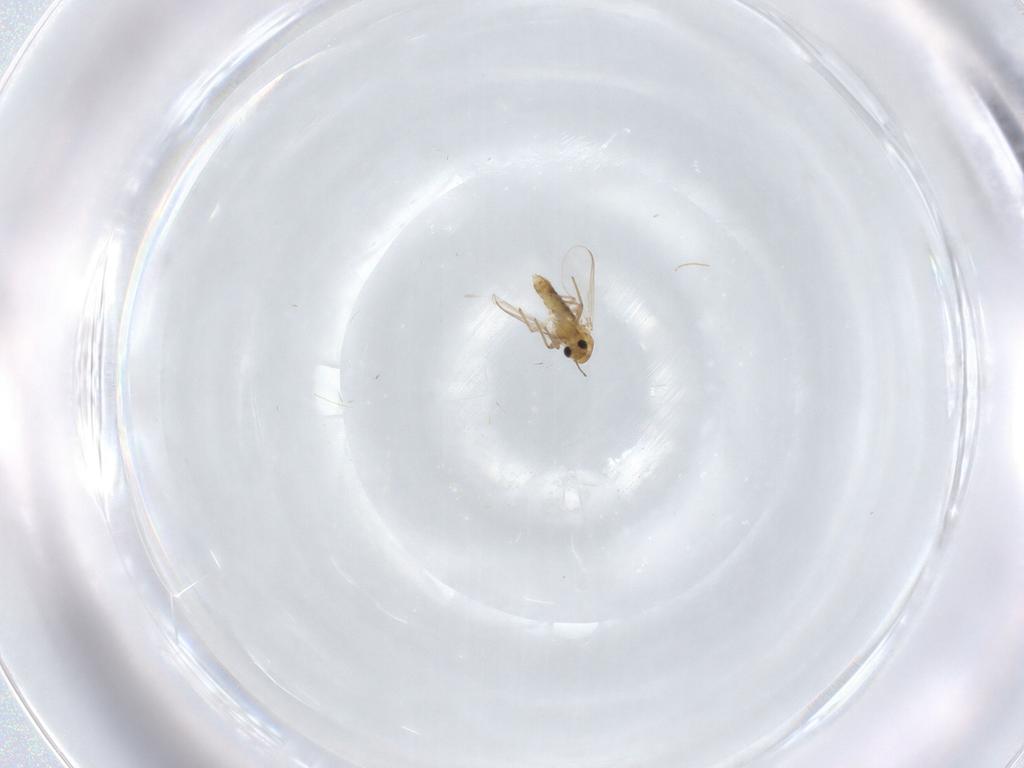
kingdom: Animalia
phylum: Arthropoda
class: Insecta
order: Diptera
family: Chironomidae
